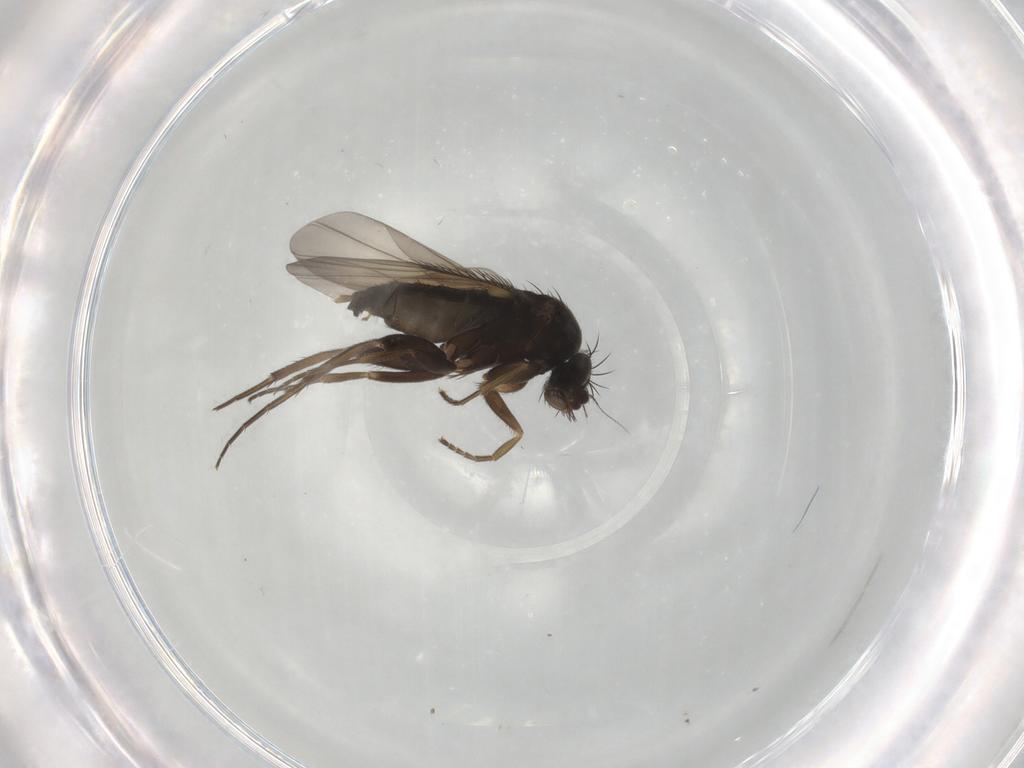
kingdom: Animalia
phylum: Arthropoda
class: Insecta
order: Diptera
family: Phoridae
